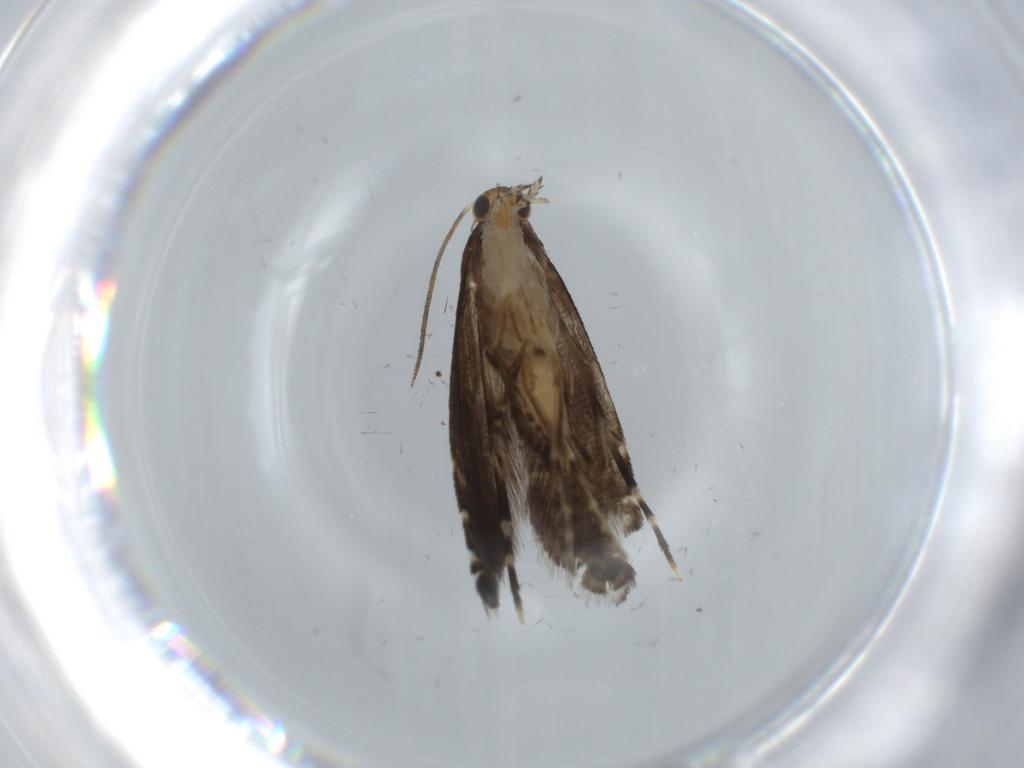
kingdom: Animalia
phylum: Arthropoda
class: Insecta
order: Lepidoptera
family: Glyphipterigidae
